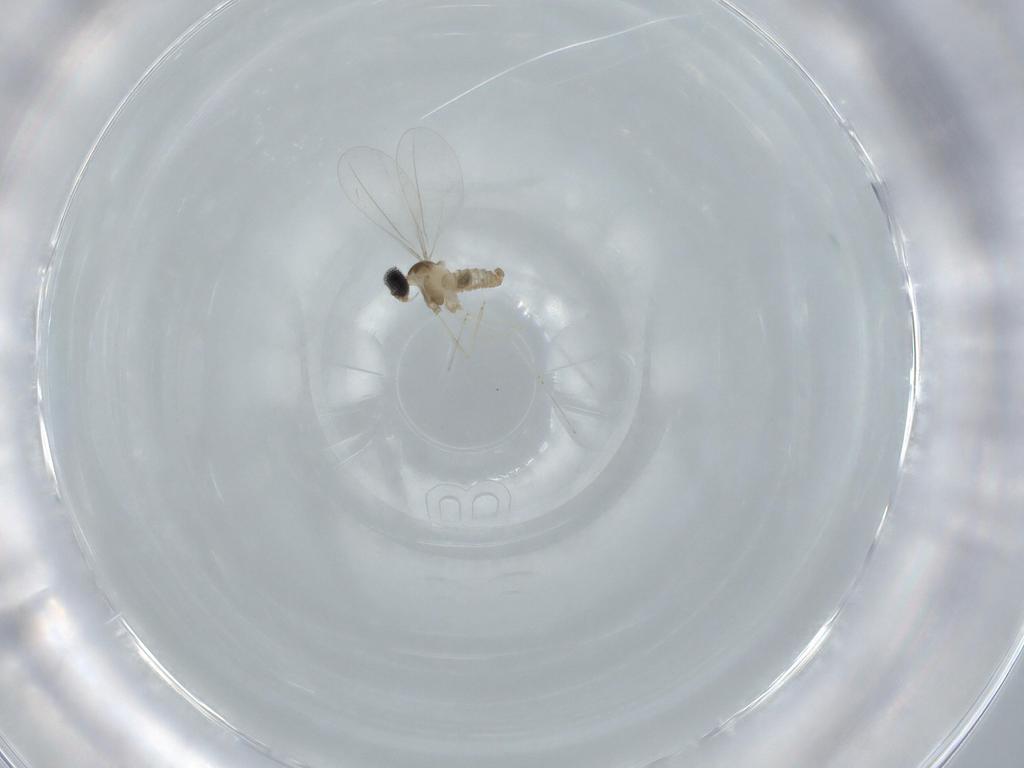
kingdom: Animalia
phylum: Arthropoda
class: Insecta
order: Diptera
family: Cecidomyiidae
